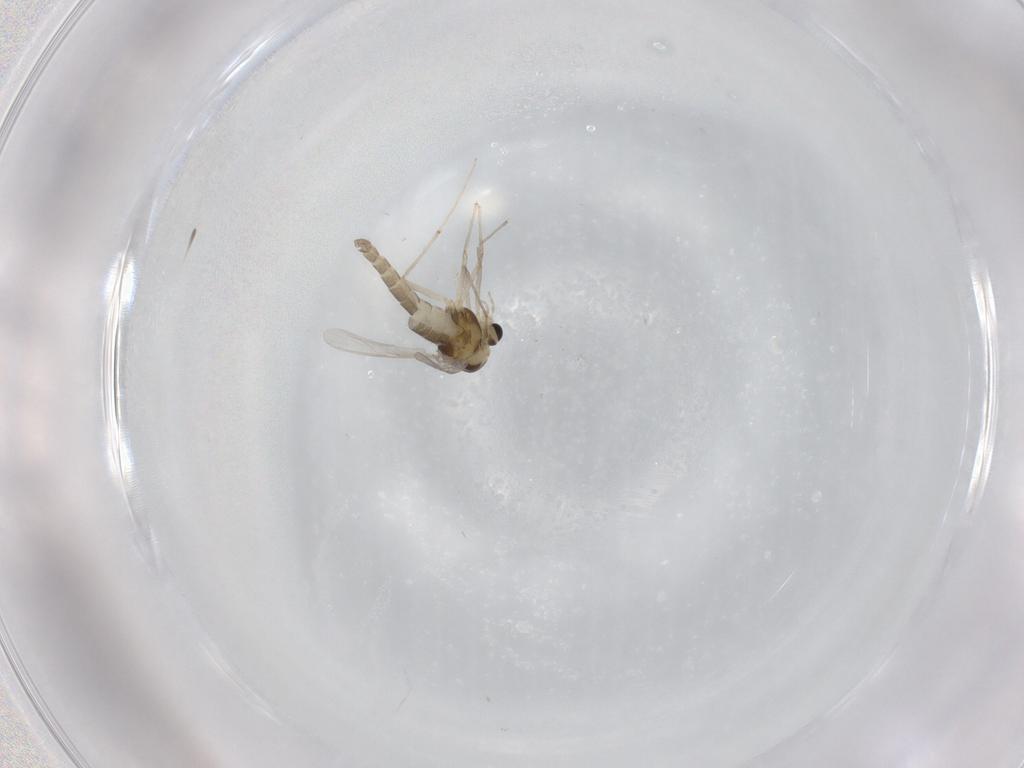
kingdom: Animalia
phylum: Arthropoda
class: Insecta
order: Diptera
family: Chironomidae
